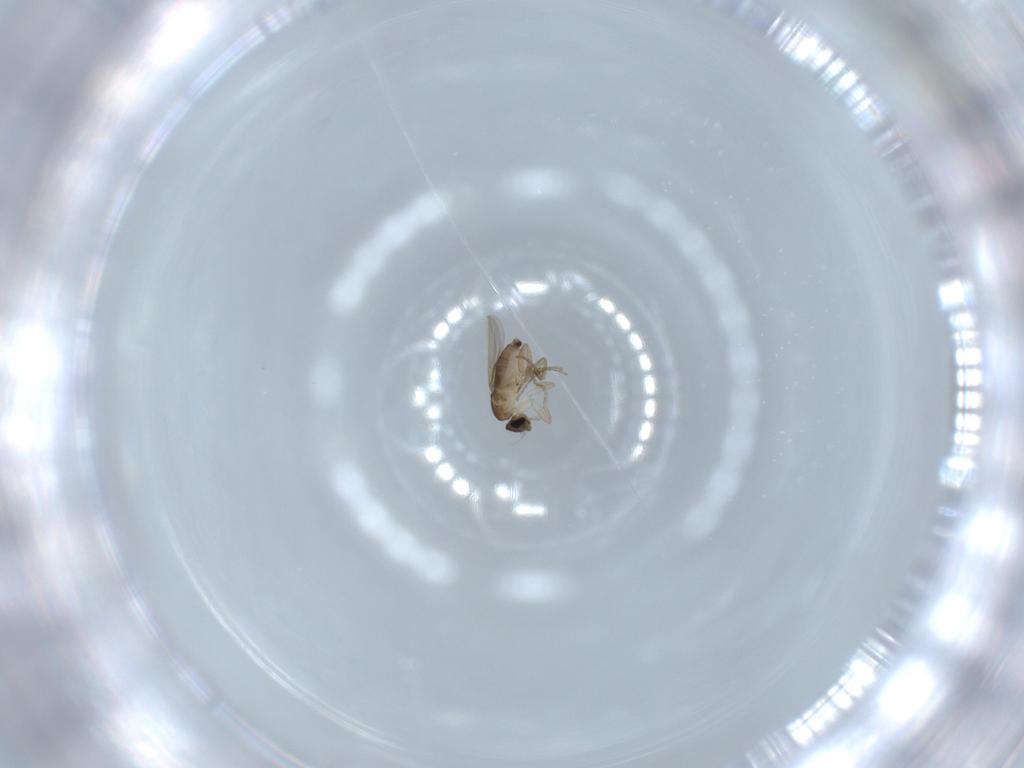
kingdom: Animalia
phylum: Arthropoda
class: Insecta
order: Diptera
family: Phoridae
